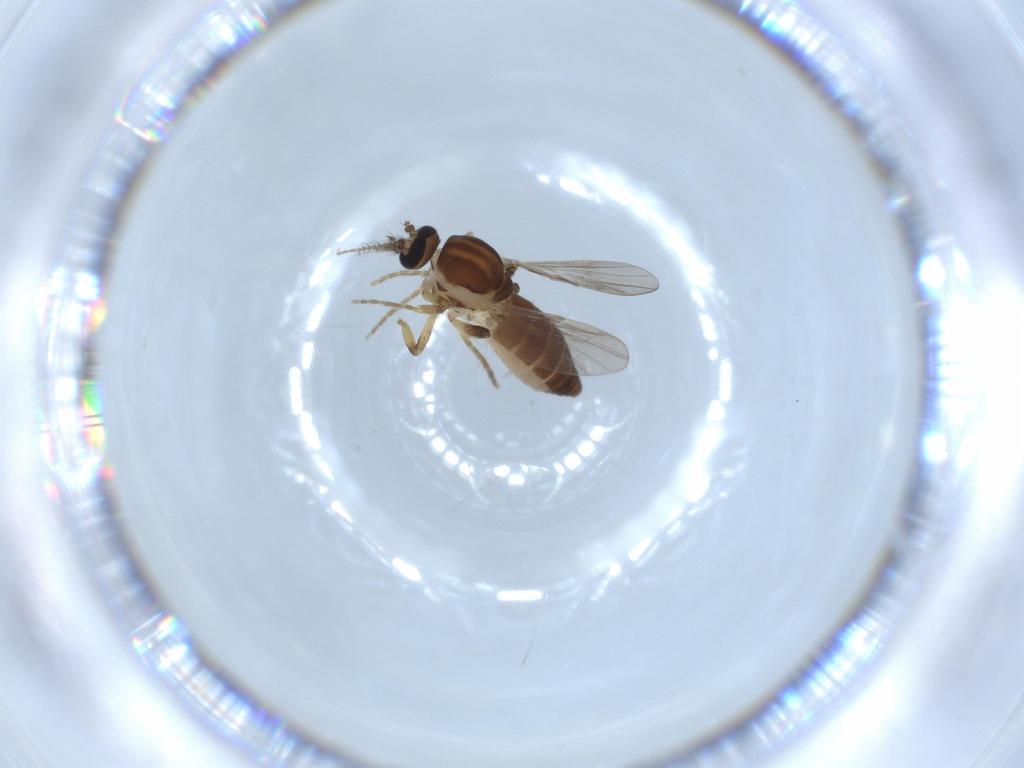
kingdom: Animalia
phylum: Arthropoda
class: Insecta
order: Diptera
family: Ceratopogonidae
